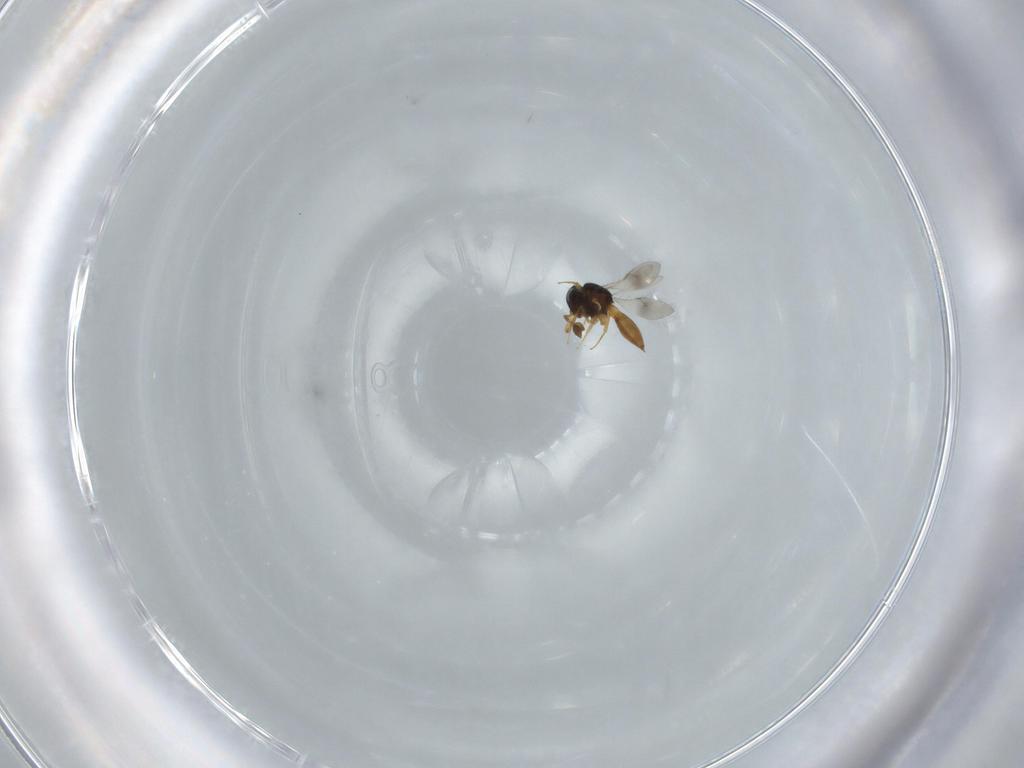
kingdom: Animalia
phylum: Arthropoda
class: Insecta
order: Hymenoptera
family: Scelionidae
